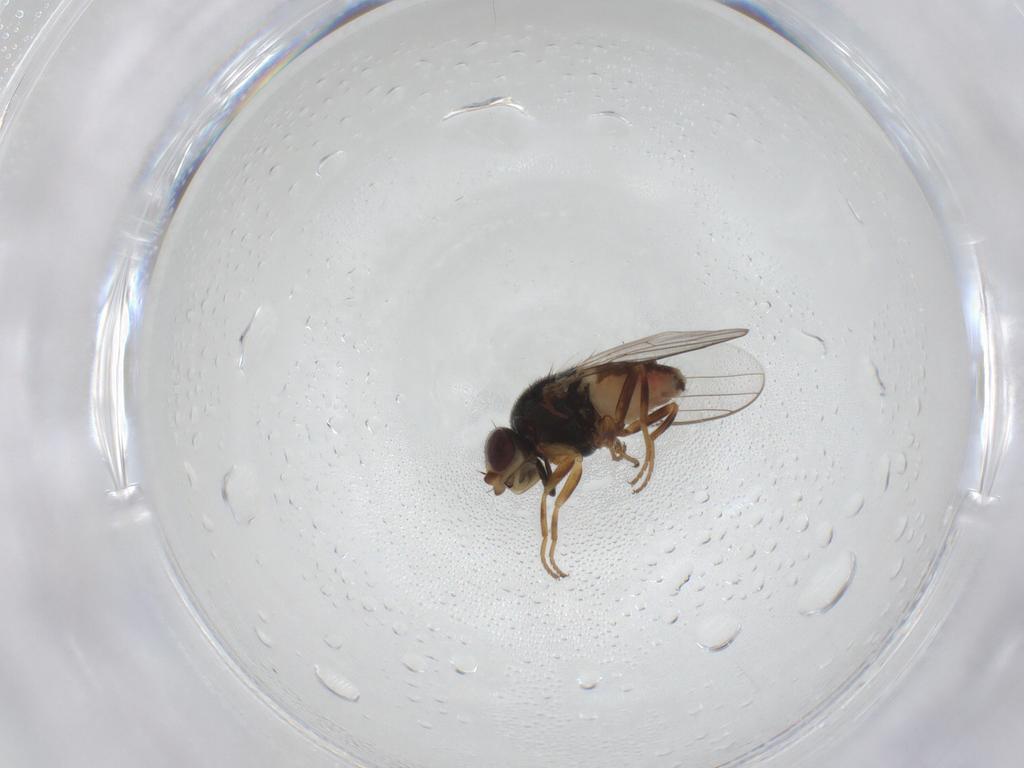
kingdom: Animalia
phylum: Arthropoda
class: Insecta
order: Diptera
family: Chloropidae
